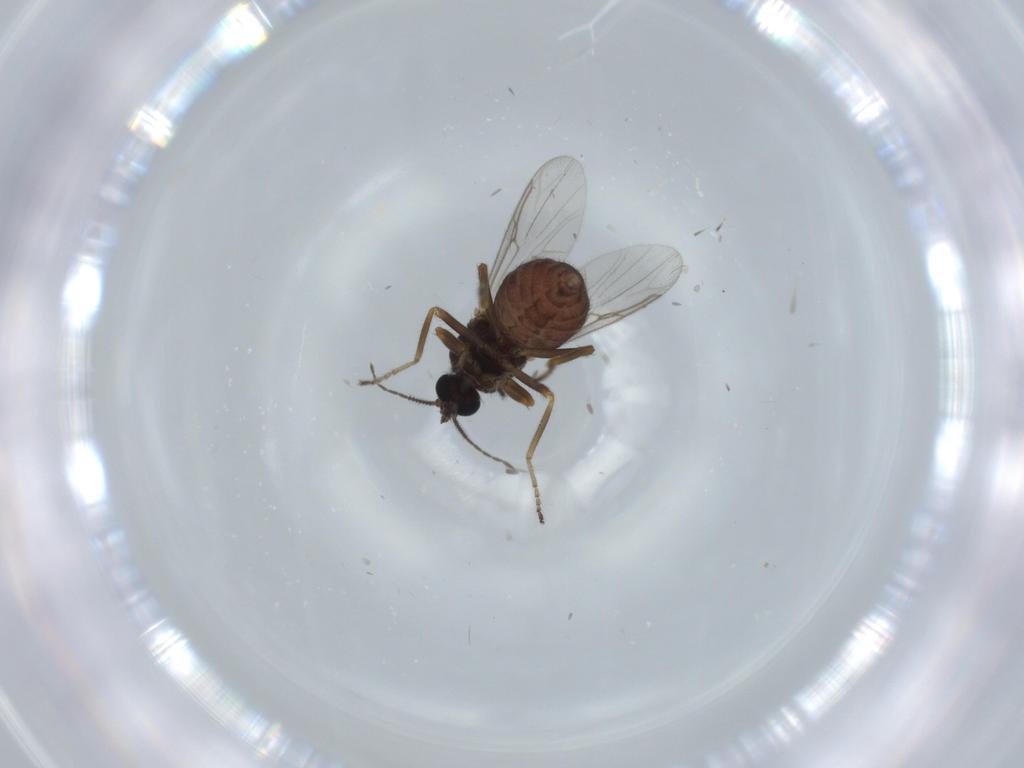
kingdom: Animalia
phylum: Arthropoda
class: Insecta
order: Diptera
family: Ceratopogonidae
